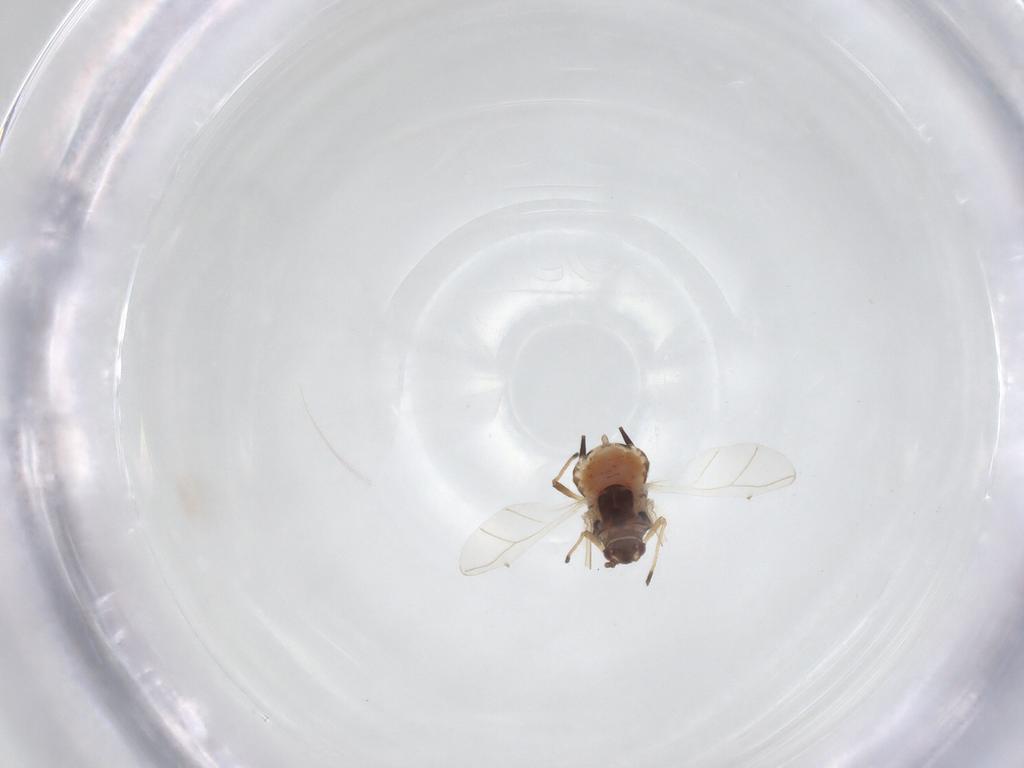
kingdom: Animalia
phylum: Arthropoda
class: Insecta
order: Hemiptera
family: Aphididae
